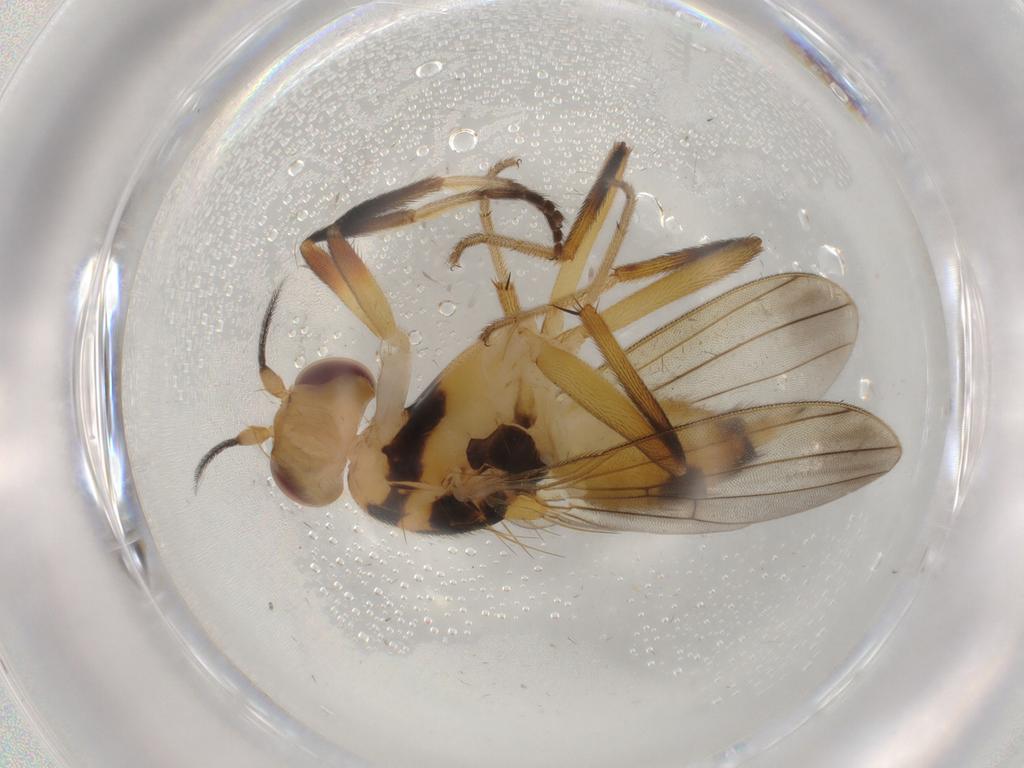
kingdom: Animalia
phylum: Arthropoda
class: Insecta
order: Diptera
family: Clusiidae
